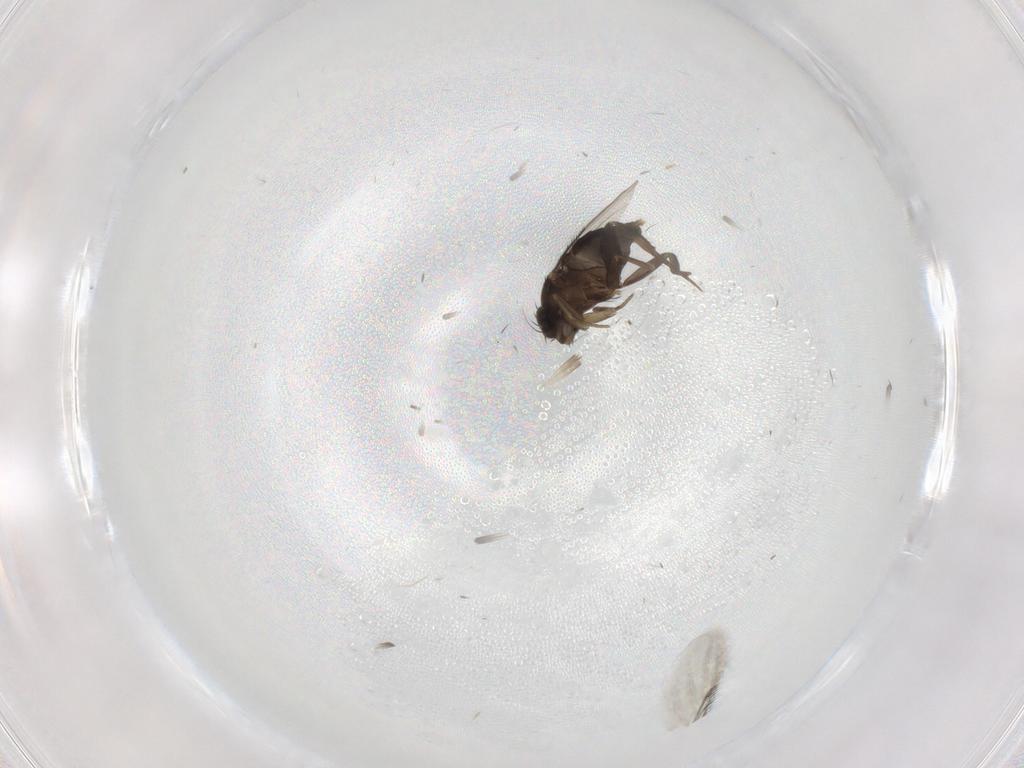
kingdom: Animalia
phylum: Arthropoda
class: Insecta
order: Diptera
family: Phoridae
